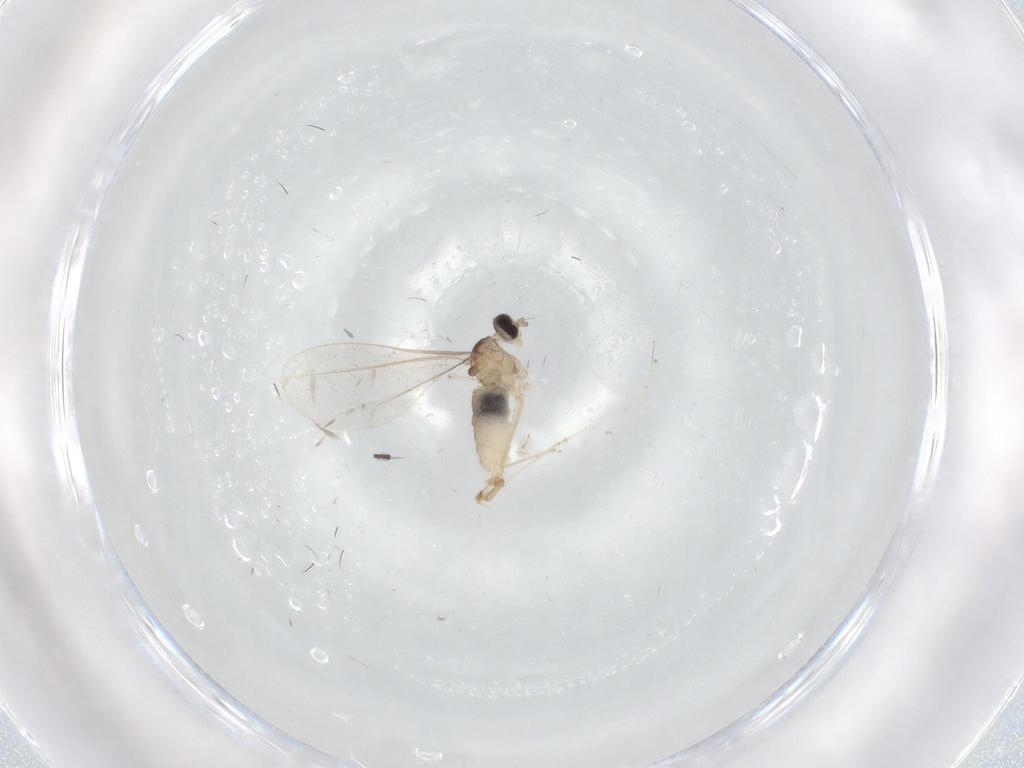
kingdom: Animalia
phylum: Arthropoda
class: Insecta
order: Diptera
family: Cecidomyiidae
